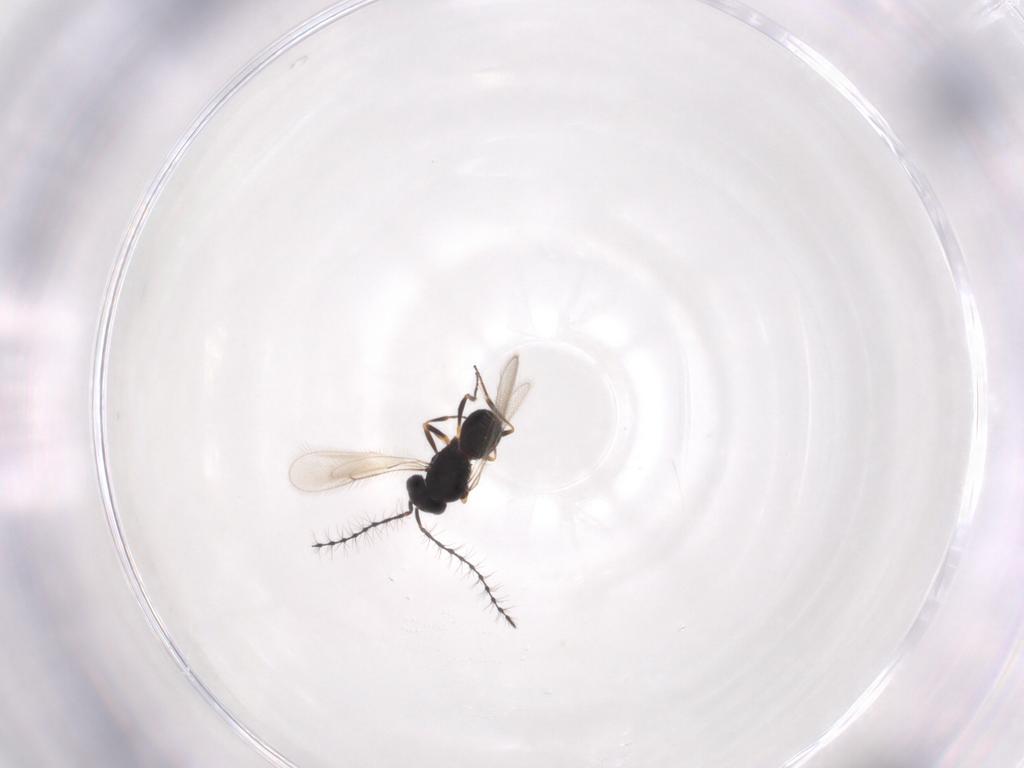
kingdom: Animalia
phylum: Arthropoda
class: Insecta
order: Hymenoptera
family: Scelionidae
